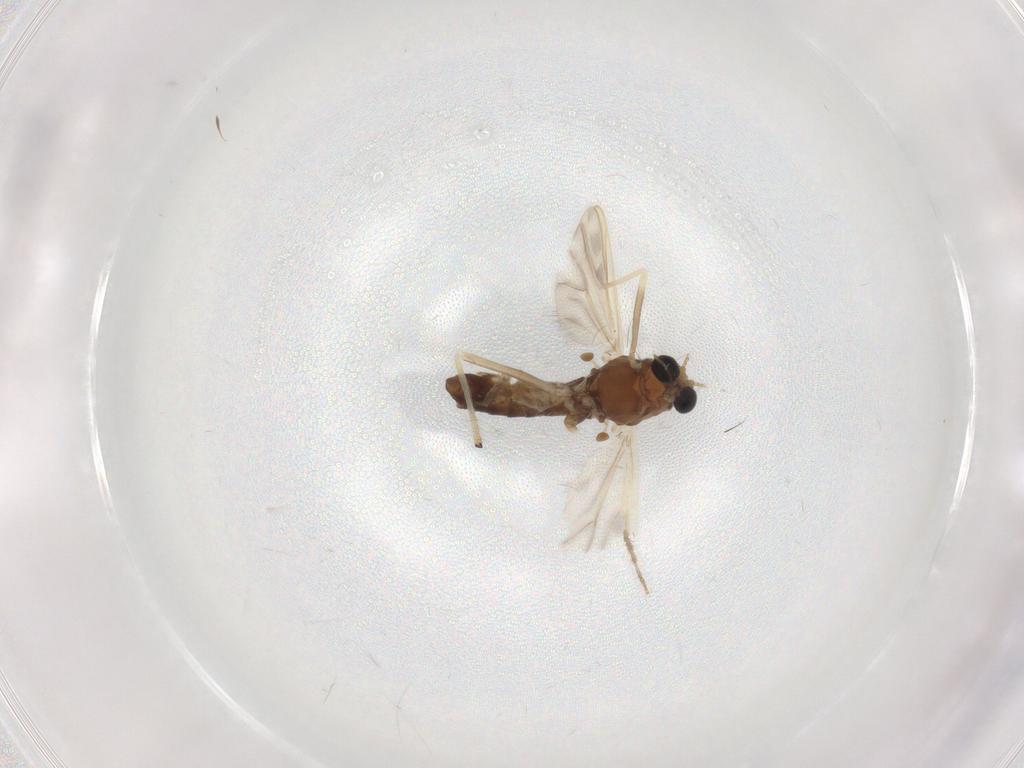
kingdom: Animalia
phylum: Arthropoda
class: Insecta
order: Diptera
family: Chironomidae
